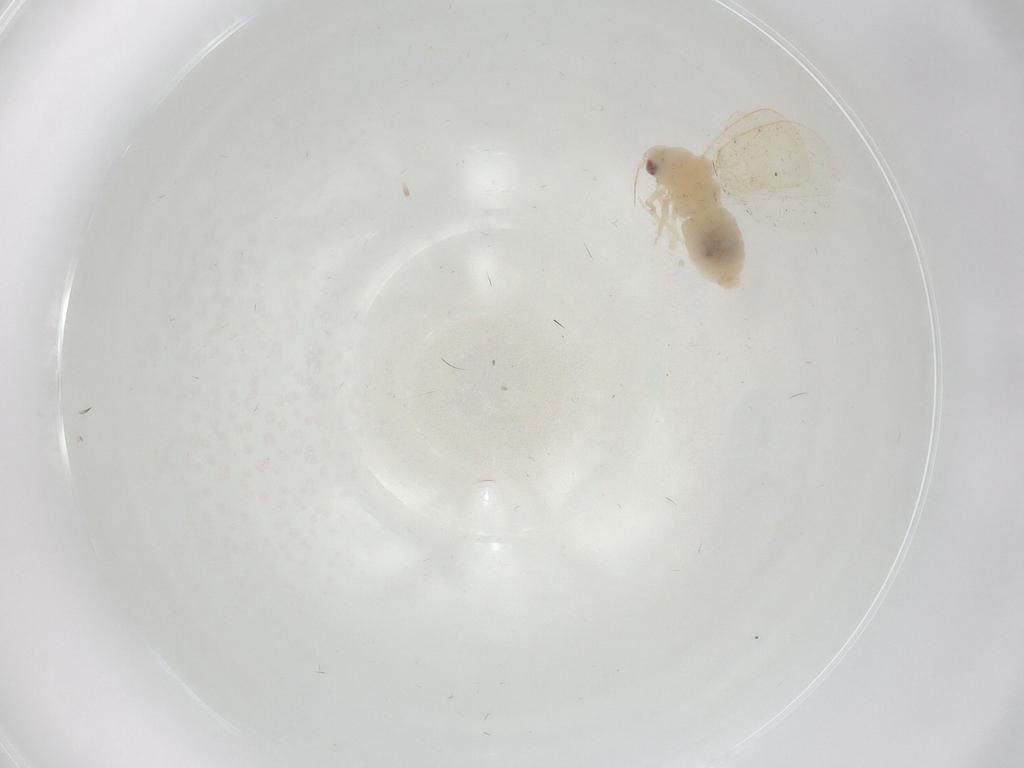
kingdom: Animalia
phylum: Arthropoda
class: Insecta
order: Hemiptera
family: Aleyrodidae
